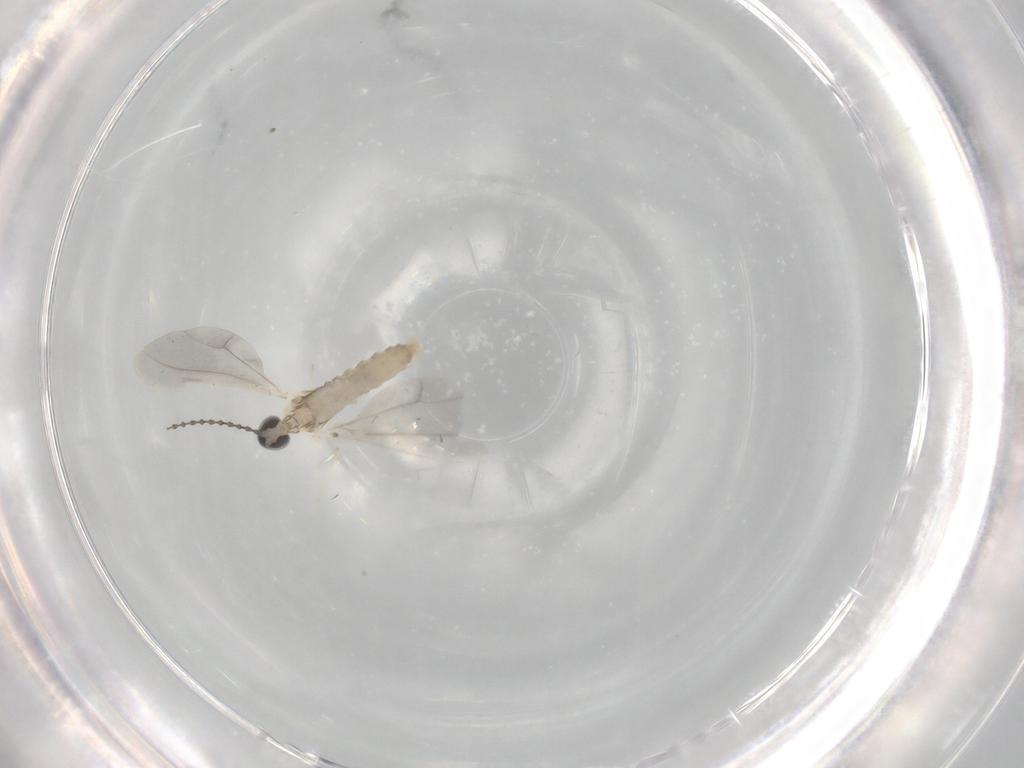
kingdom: Animalia
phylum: Arthropoda
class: Insecta
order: Diptera
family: Cecidomyiidae
